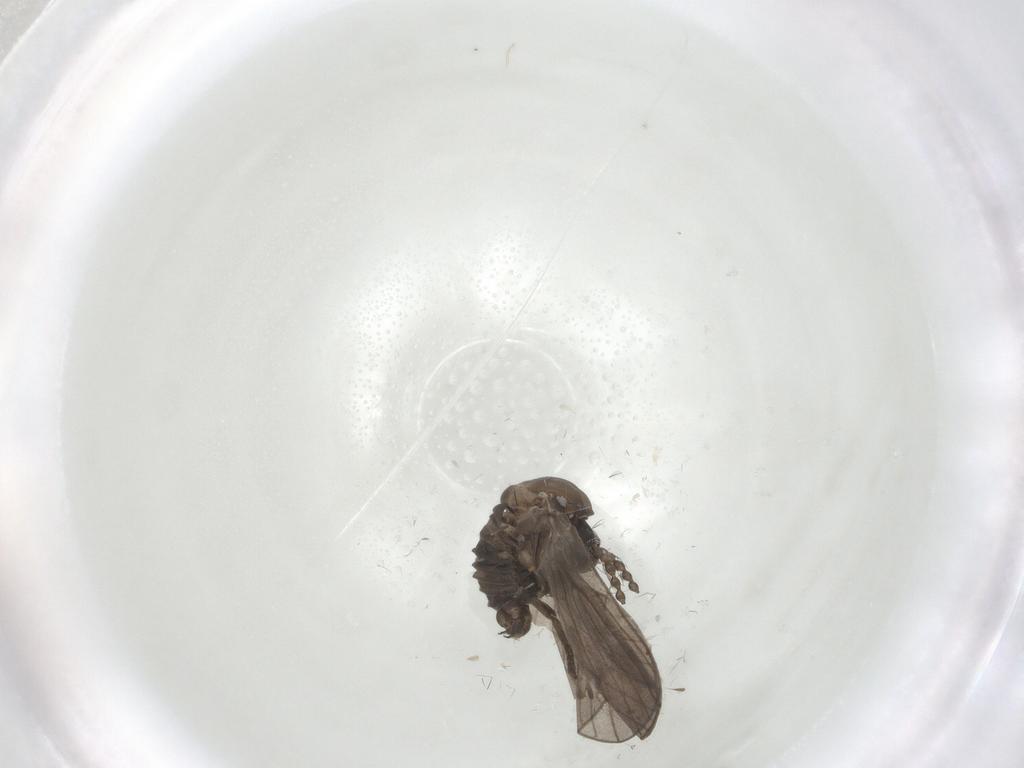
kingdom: Animalia
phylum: Arthropoda
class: Insecta
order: Diptera
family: Psychodidae
